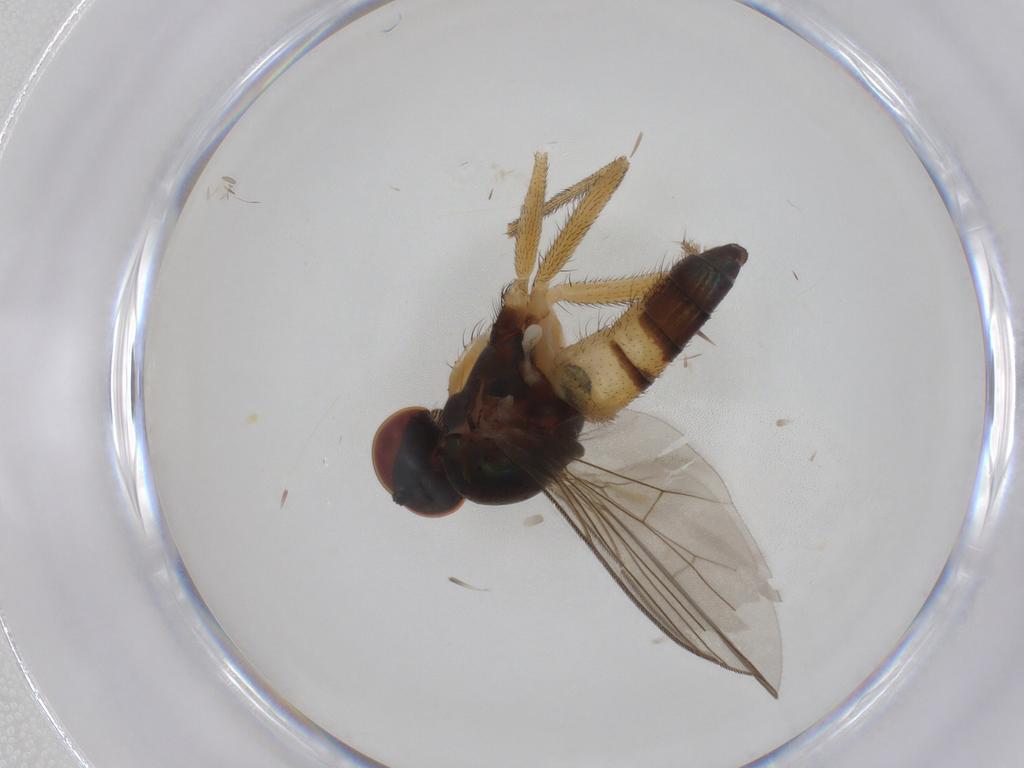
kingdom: Animalia
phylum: Arthropoda
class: Insecta
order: Diptera
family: Dolichopodidae
